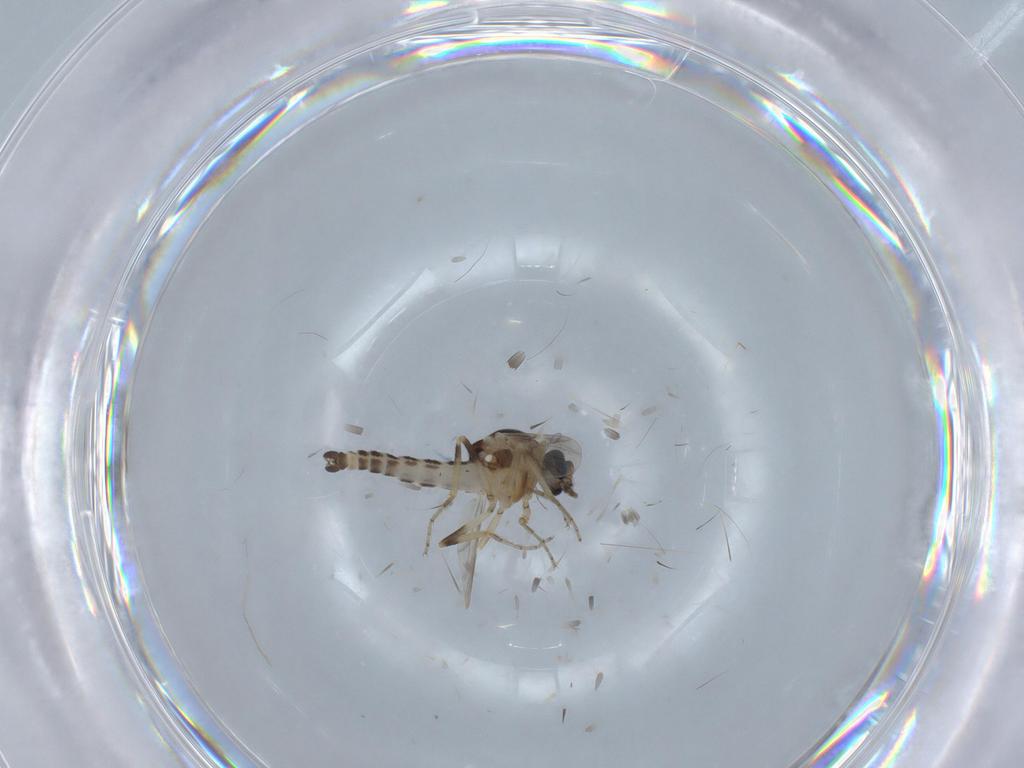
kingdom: Animalia
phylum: Arthropoda
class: Insecta
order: Diptera
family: Ceratopogonidae
